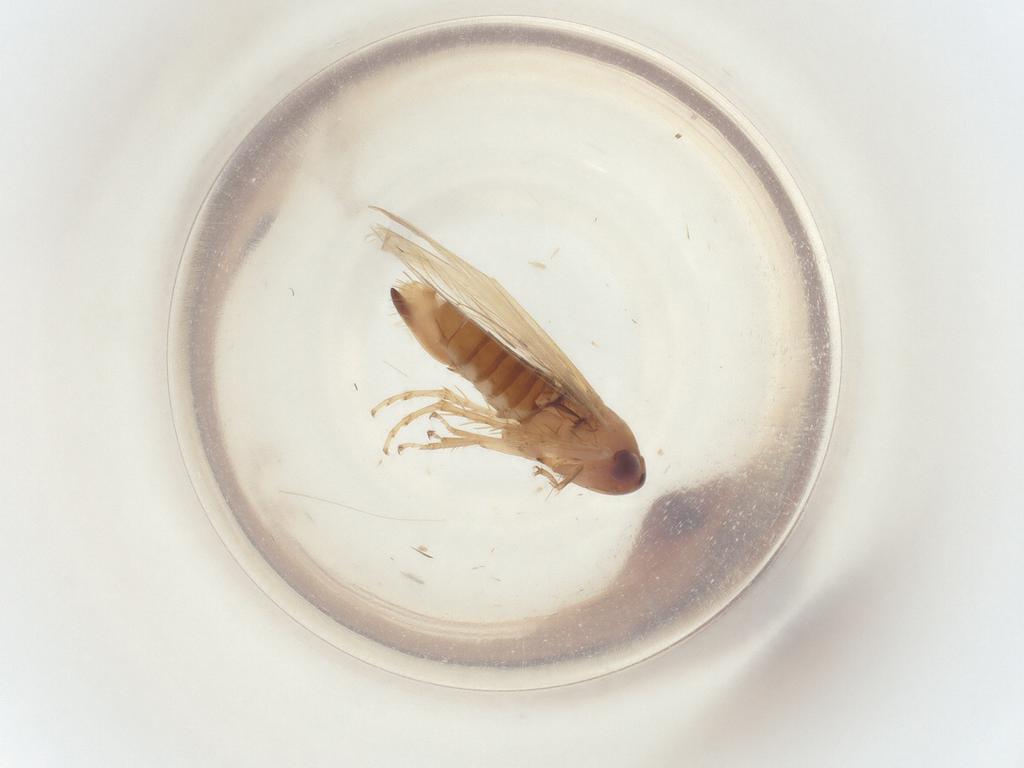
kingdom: Animalia
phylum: Arthropoda
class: Insecta
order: Hemiptera
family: Cicadellidae
